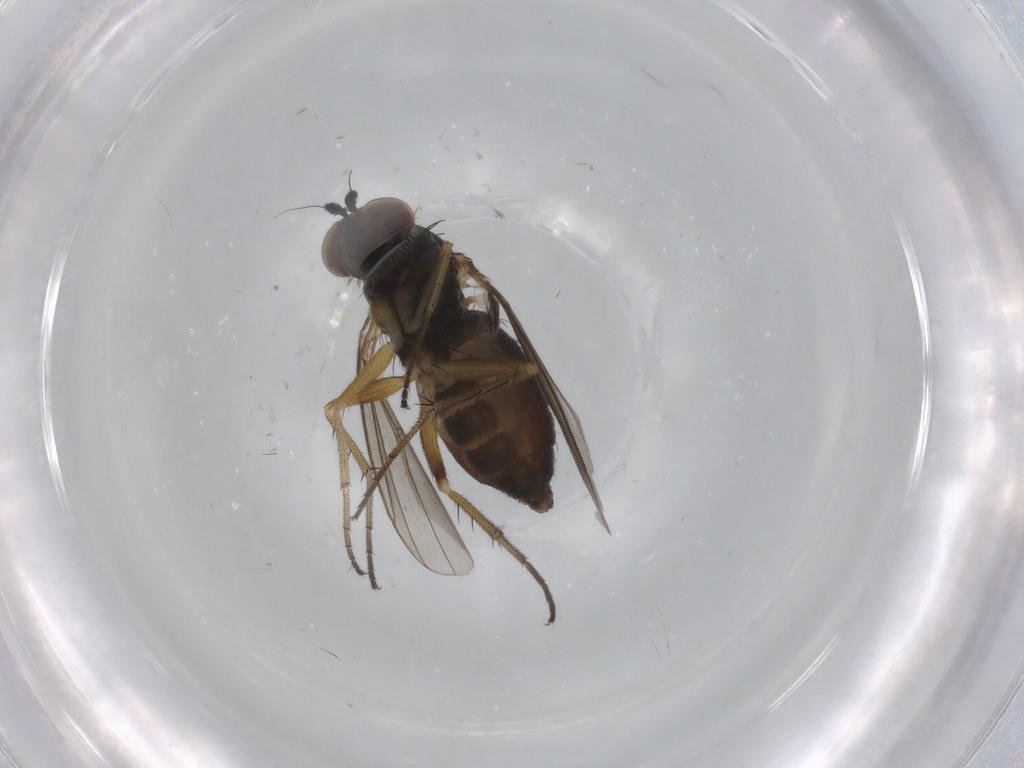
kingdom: Animalia
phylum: Arthropoda
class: Insecta
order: Diptera
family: Dolichopodidae
